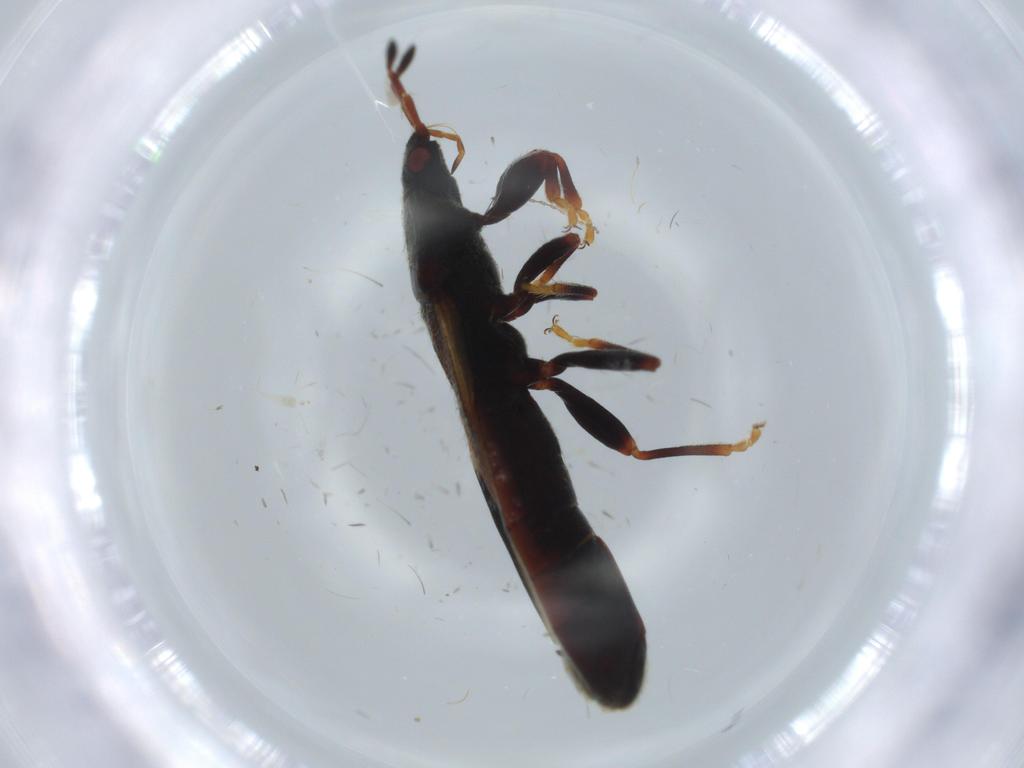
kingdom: Animalia
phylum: Arthropoda
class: Insecta
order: Hemiptera
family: Blissidae
